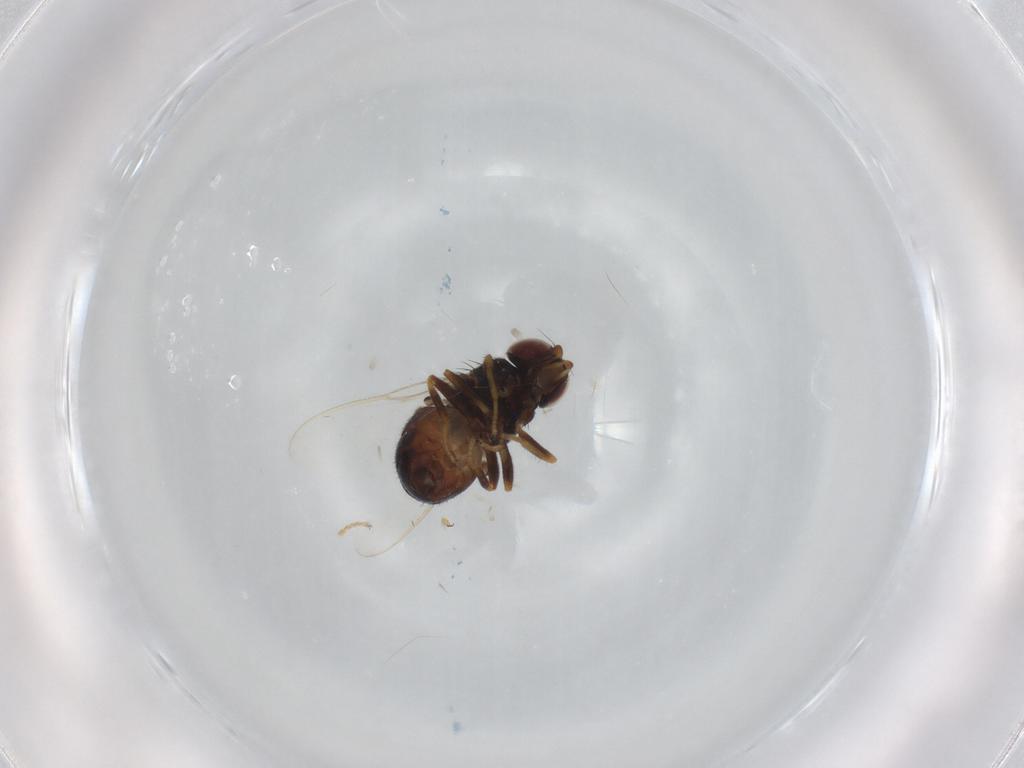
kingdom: Animalia
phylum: Arthropoda
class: Insecta
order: Diptera
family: Chloropidae
